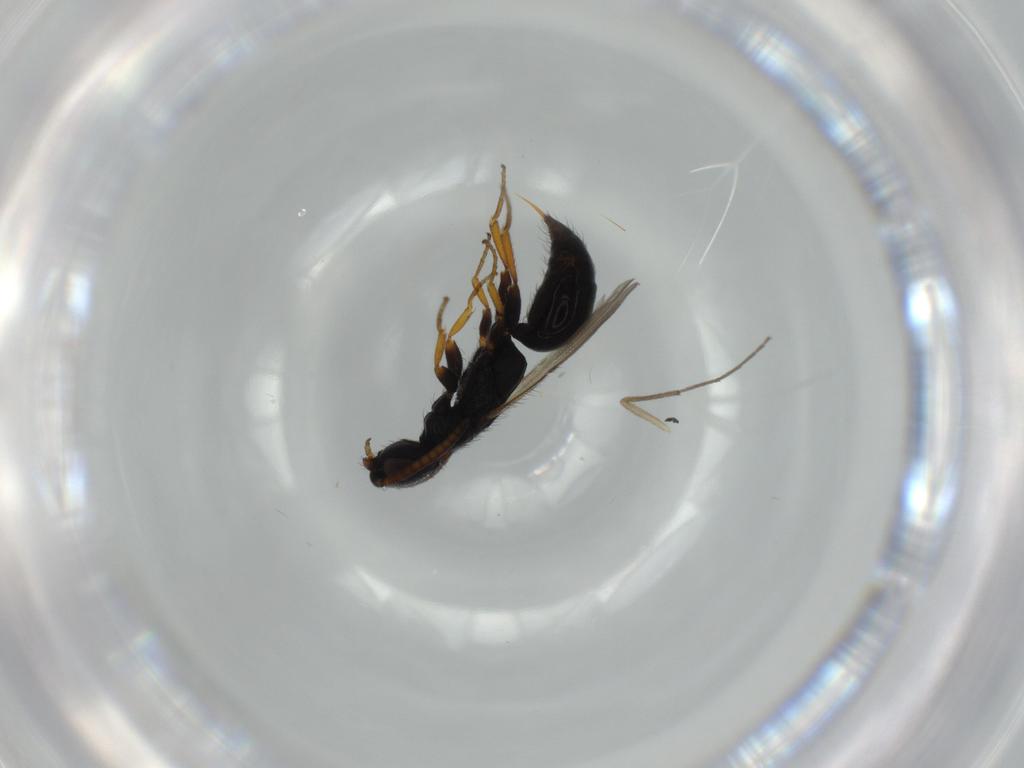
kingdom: Animalia
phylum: Arthropoda
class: Insecta
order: Hymenoptera
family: Bethylidae
